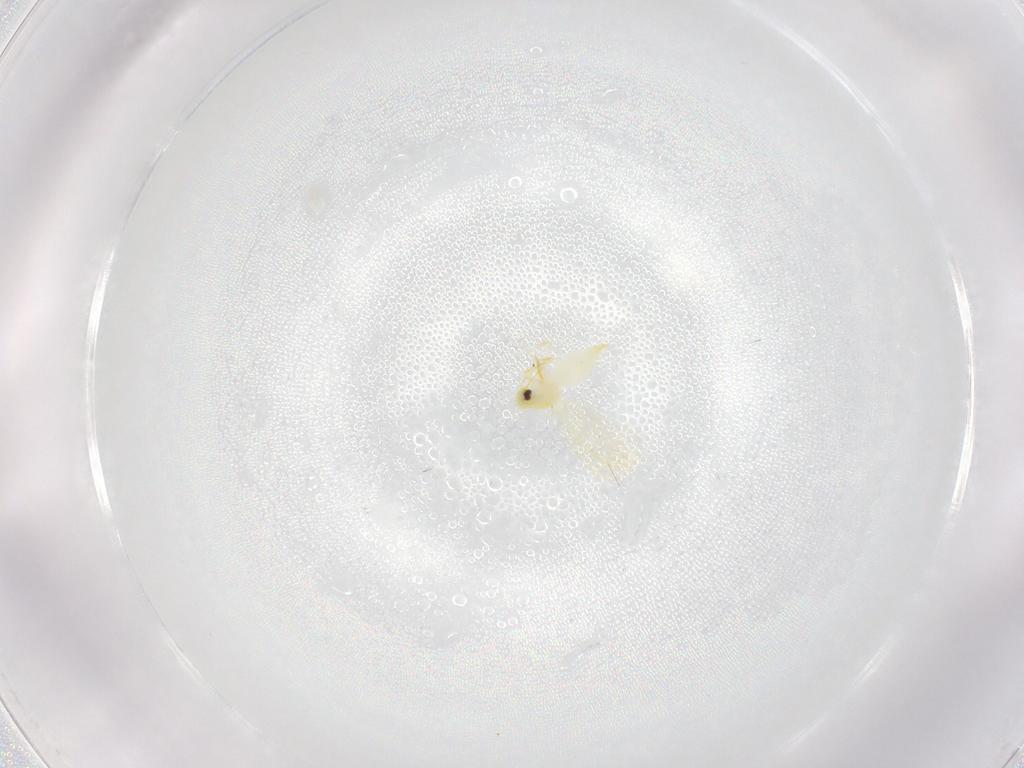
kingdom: Animalia
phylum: Arthropoda
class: Insecta
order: Hemiptera
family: Aleyrodidae
